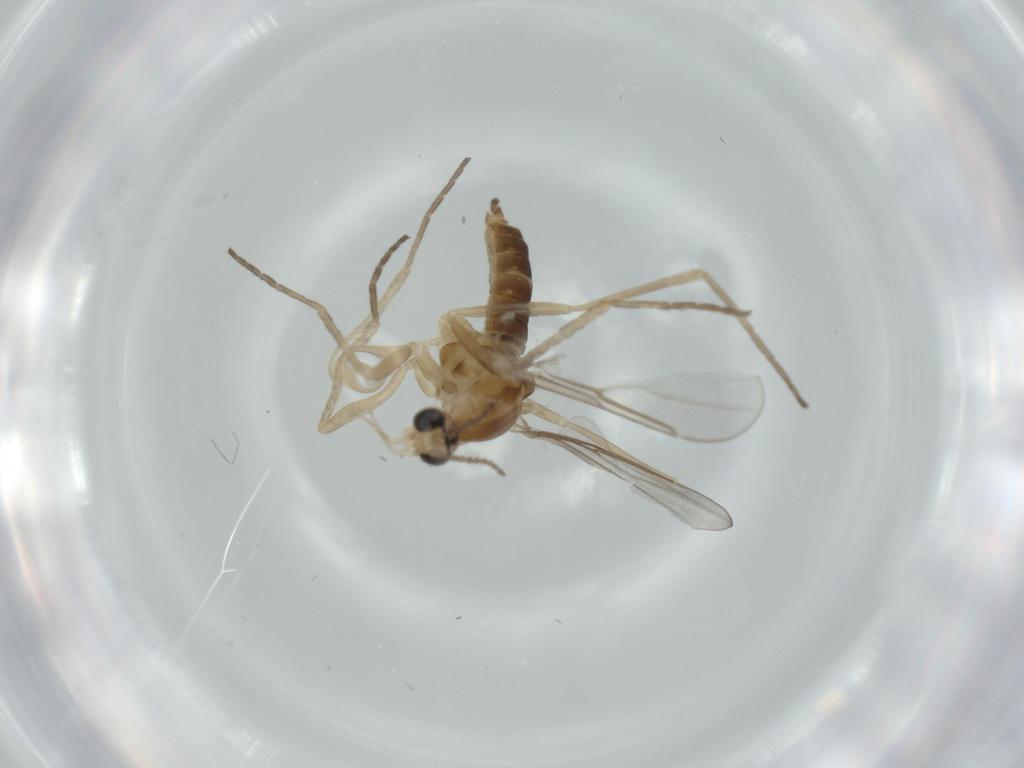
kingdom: Animalia
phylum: Arthropoda
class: Insecta
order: Diptera
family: Cecidomyiidae
